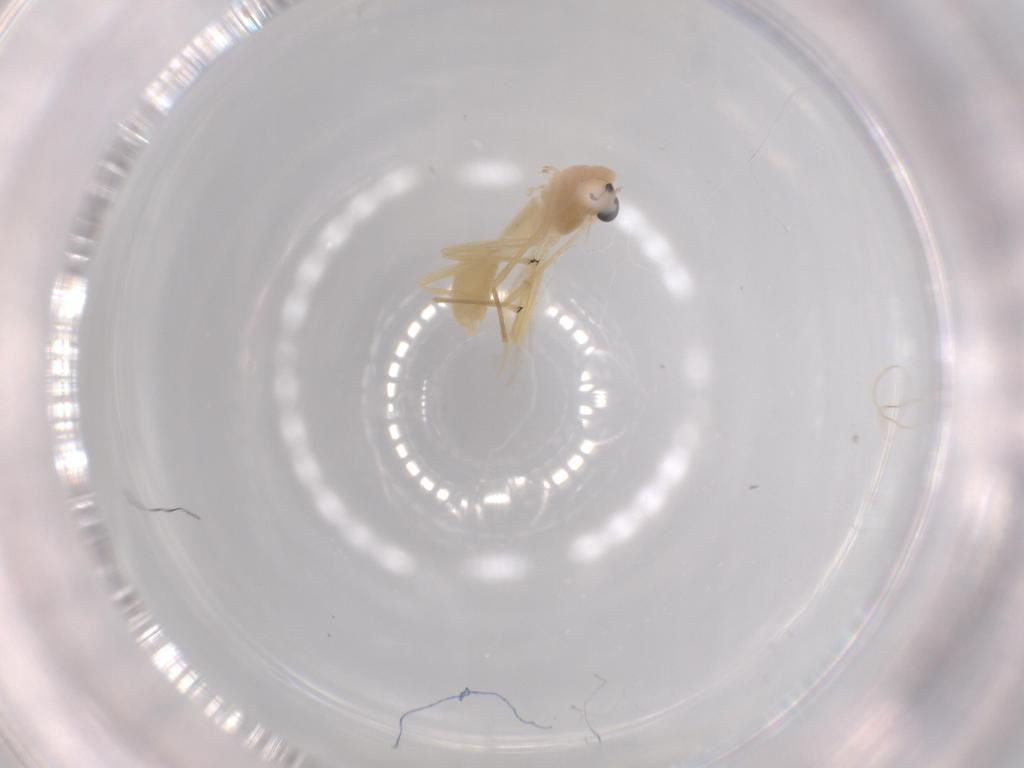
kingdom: Animalia
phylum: Arthropoda
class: Insecta
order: Diptera
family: Chironomidae
